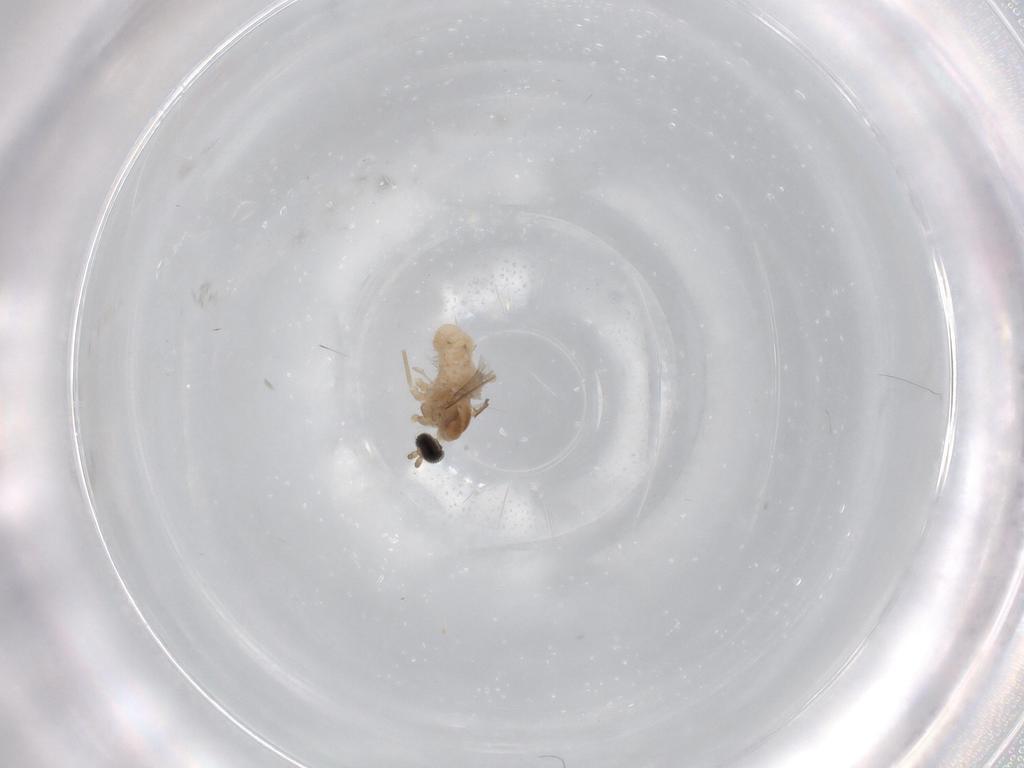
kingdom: Animalia
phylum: Arthropoda
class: Insecta
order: Diptera
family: Cecidomyiidae
